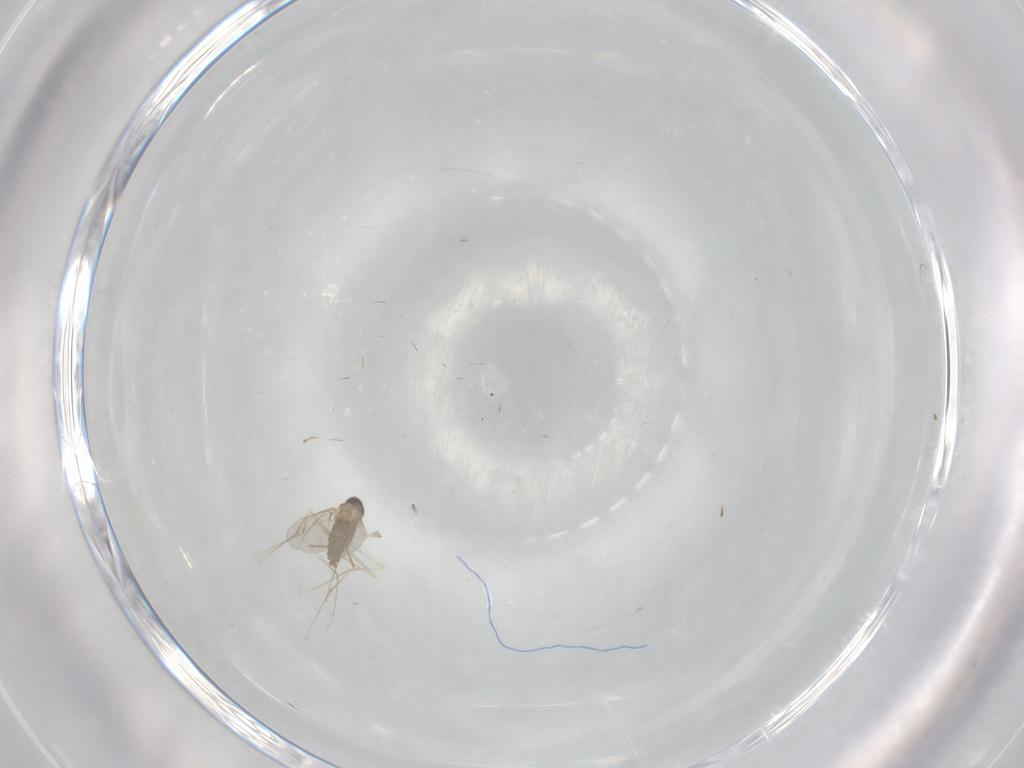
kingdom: Animalia
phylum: Arthropoda
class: Insecta
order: Diptera
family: Cecidomyiidae
